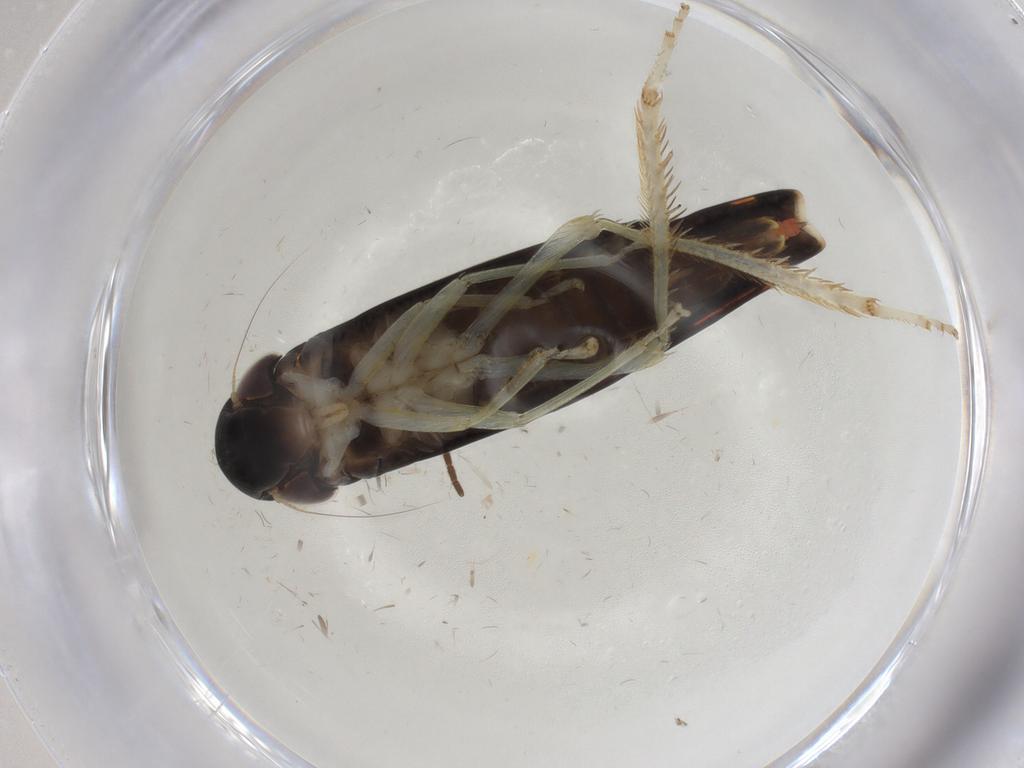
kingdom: Animalia
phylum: Arthropoda
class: Insecta
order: Hemiptera
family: Cicadellidae
